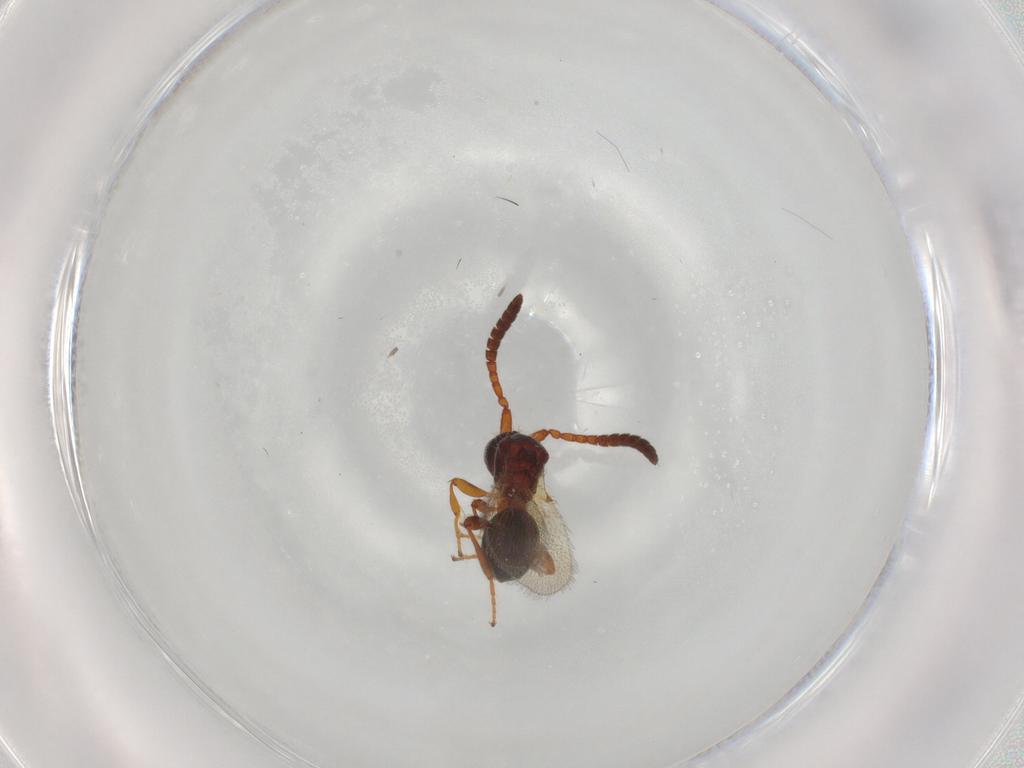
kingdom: Animalia
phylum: Arthropoda
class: Insecta
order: Hymenoptera
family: Diapriidae
